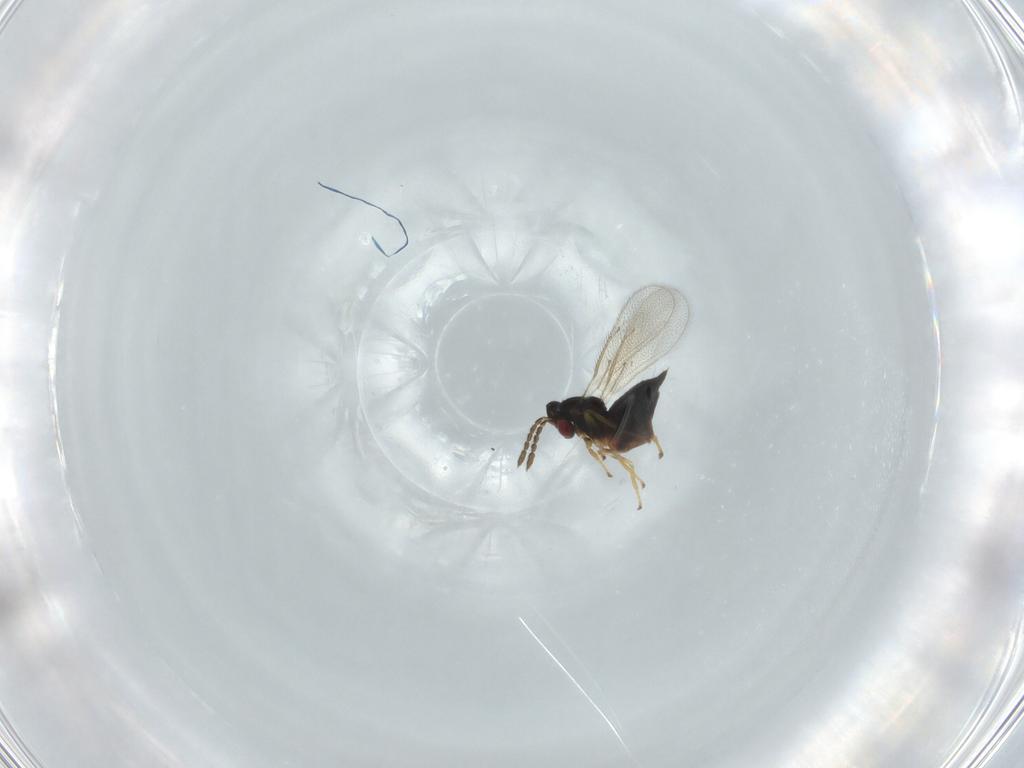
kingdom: Animalia
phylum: Arthropoda
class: Insecta
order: Hymenoptera
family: Eulophidae
